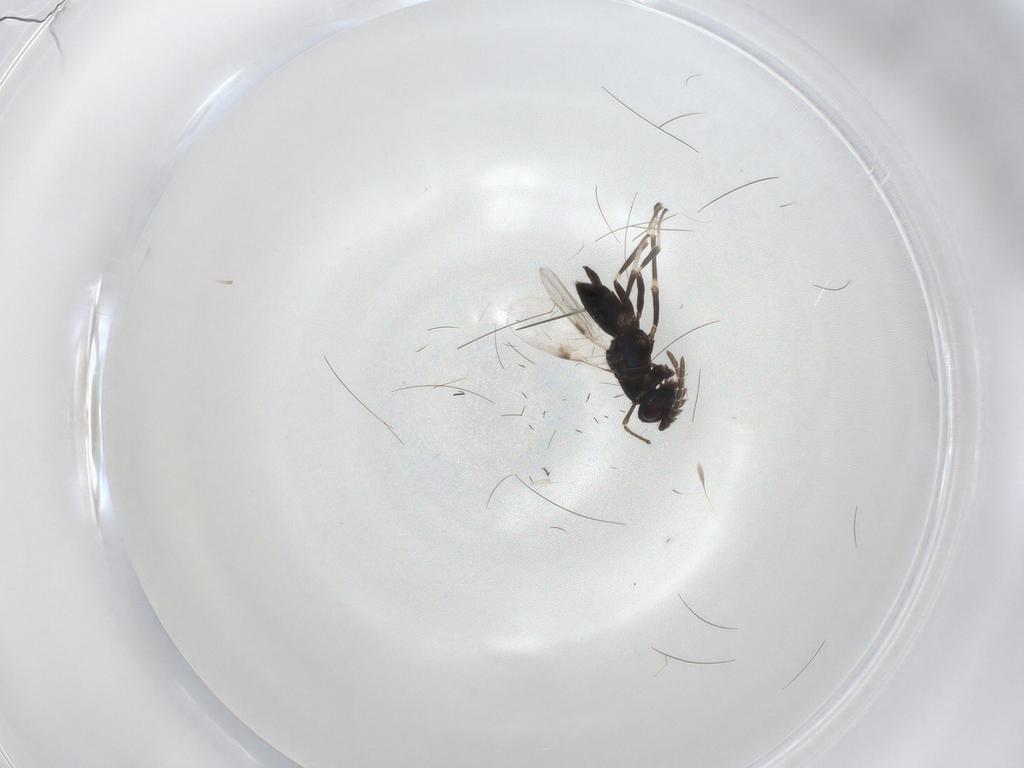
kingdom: Animalia
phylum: Arthropoda
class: Insecta
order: Hymenoptera
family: Encyrtidae
